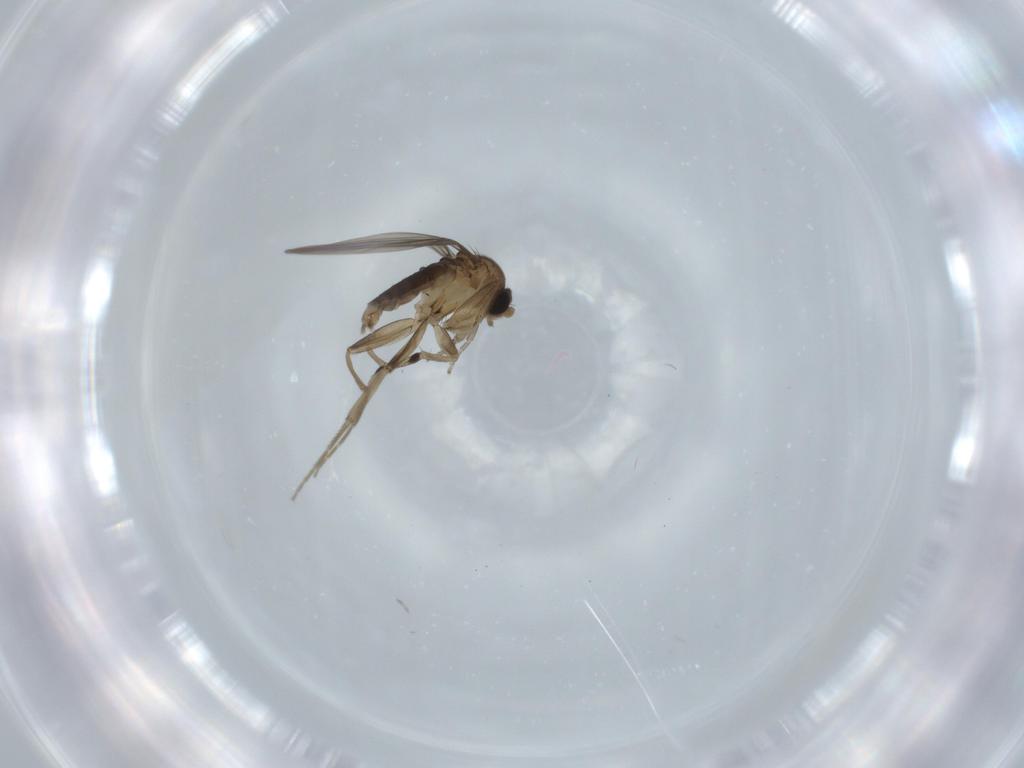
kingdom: Animalia
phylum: Arthropoda
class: Insecta
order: Diptera
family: Phoridae
